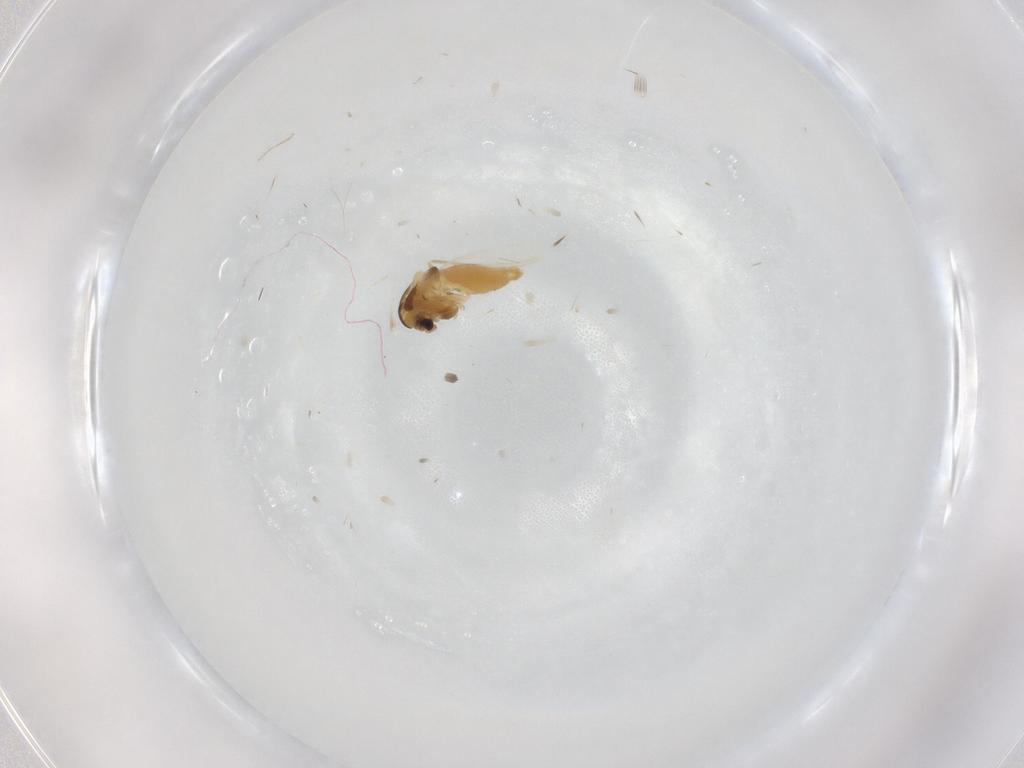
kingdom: Animalia
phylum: Arthropoda
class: Insecta
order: Diptera
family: Chironomidae
